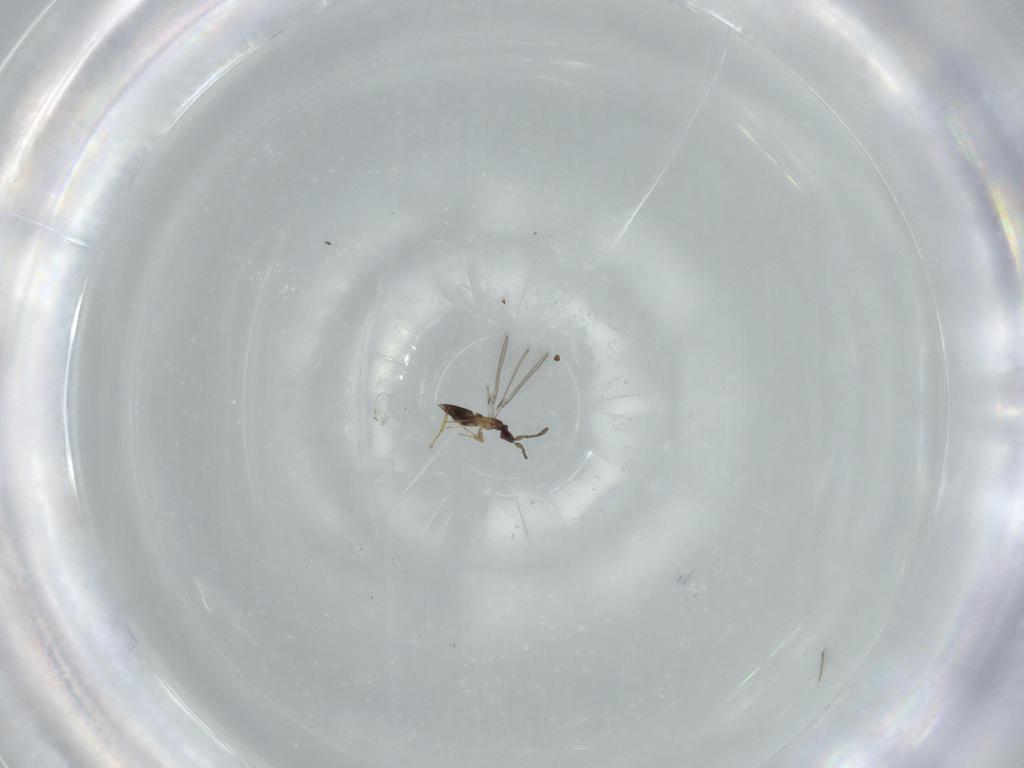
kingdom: Animalia
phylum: Arthropoda
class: Insecta
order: Hymenoptera
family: Mymaridae
